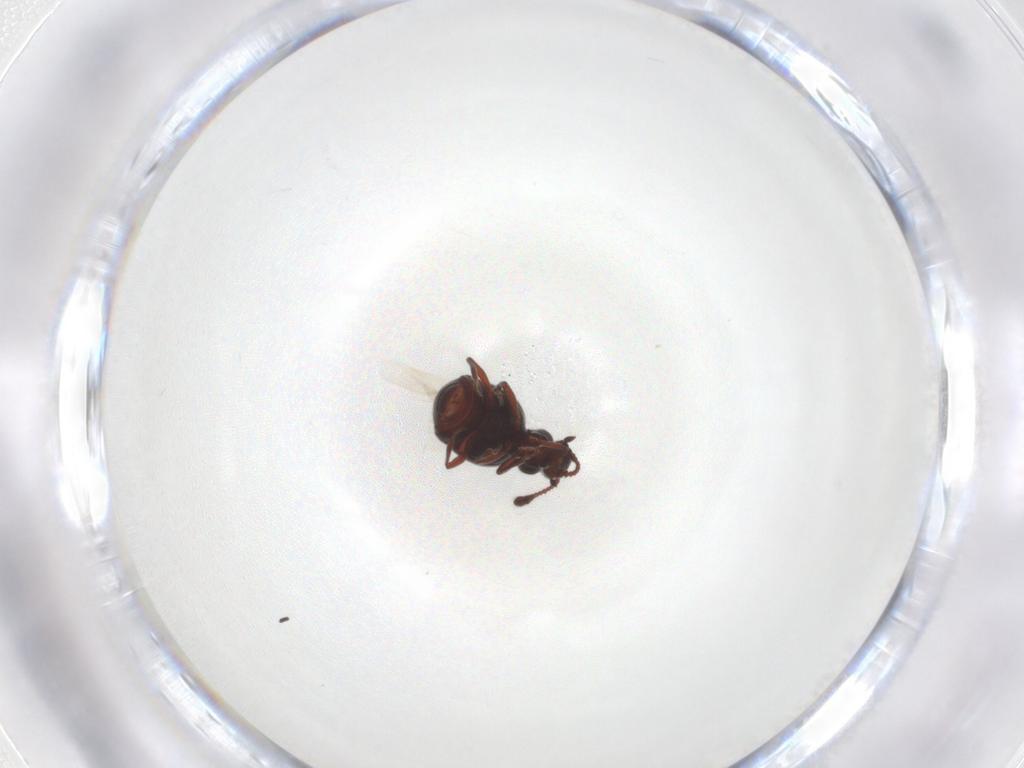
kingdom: Animalia
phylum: Arthropoda
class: Insecta
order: Coleoptera
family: Staphylinidae
